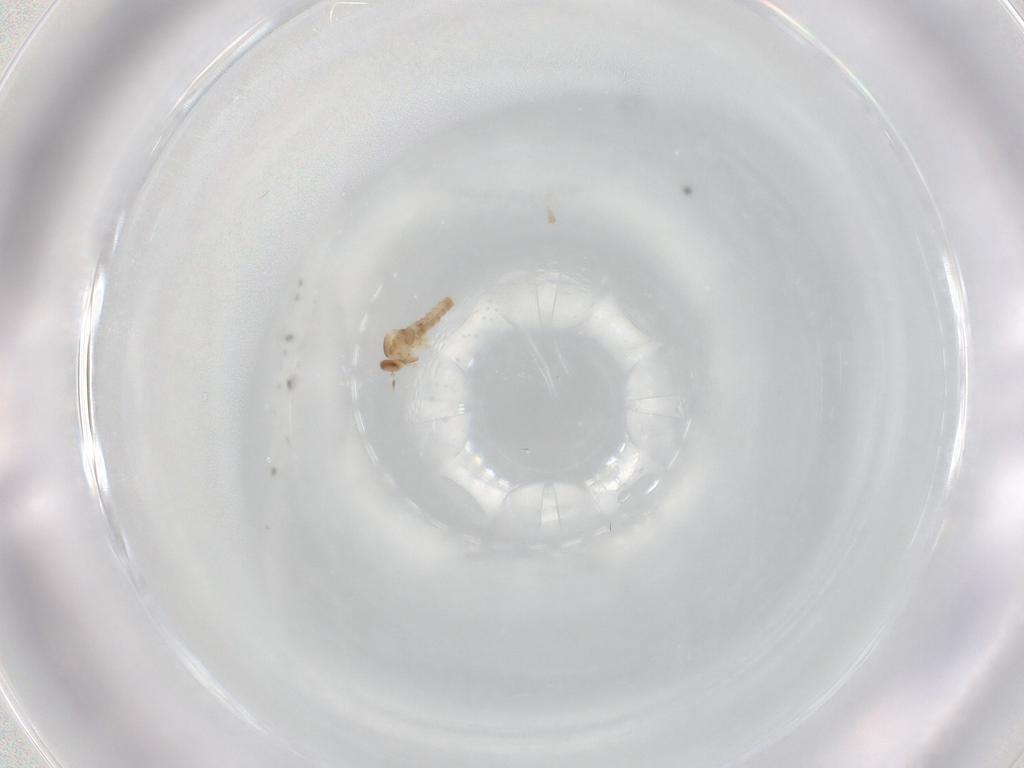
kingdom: Animalia
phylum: Arthropoda
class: Insecta
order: Diptera
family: Cecidomyiidae
